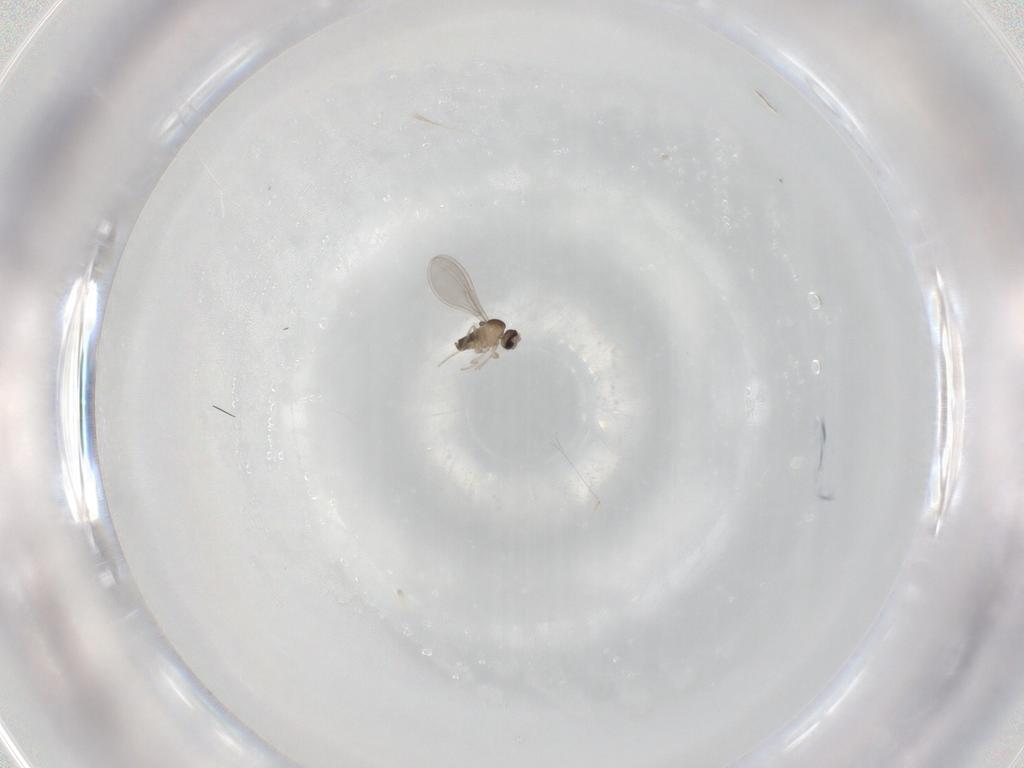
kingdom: Animalia
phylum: Arthropoda
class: Insecta
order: Diptera
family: Cecidomyiidae
